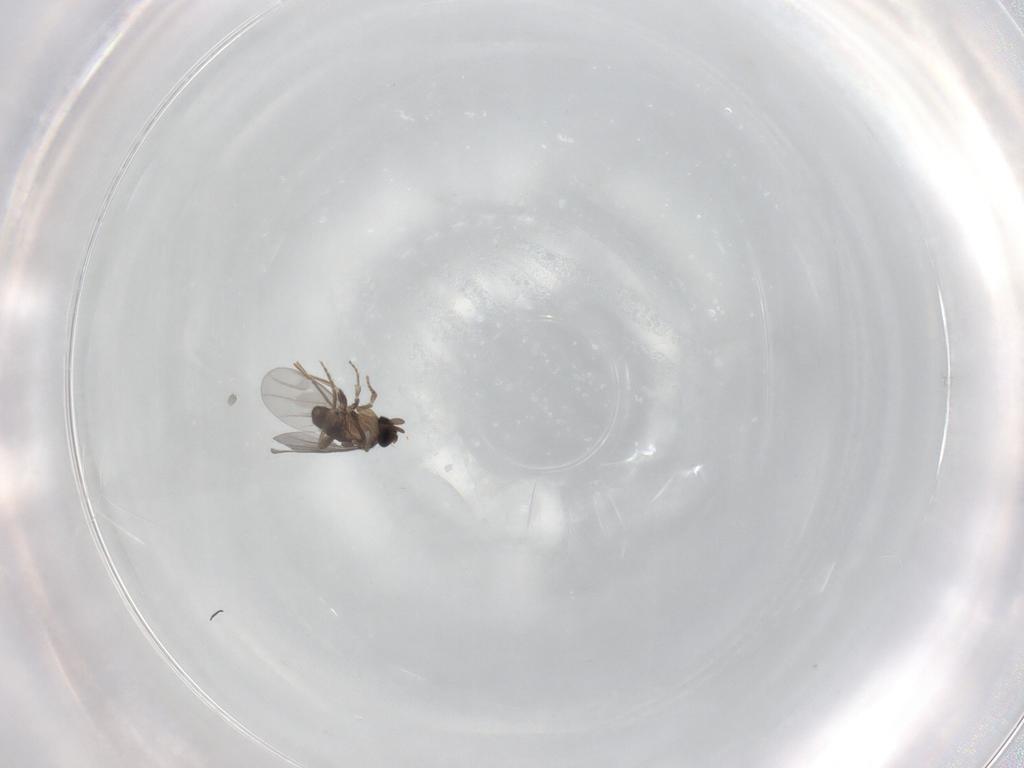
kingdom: Animalia
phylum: Arthropoda
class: Insecta
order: Diptera
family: Phoridae
